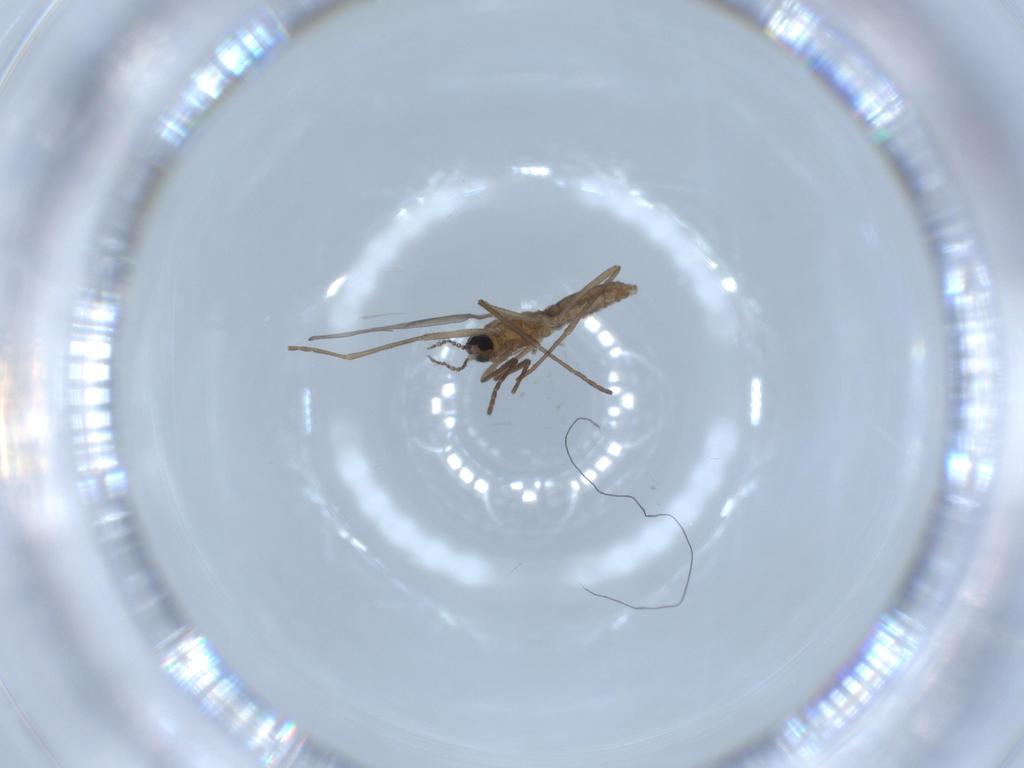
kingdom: Animalia
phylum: Arthropoda
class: Insecta
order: Diptera
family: Cecidomyiidae
